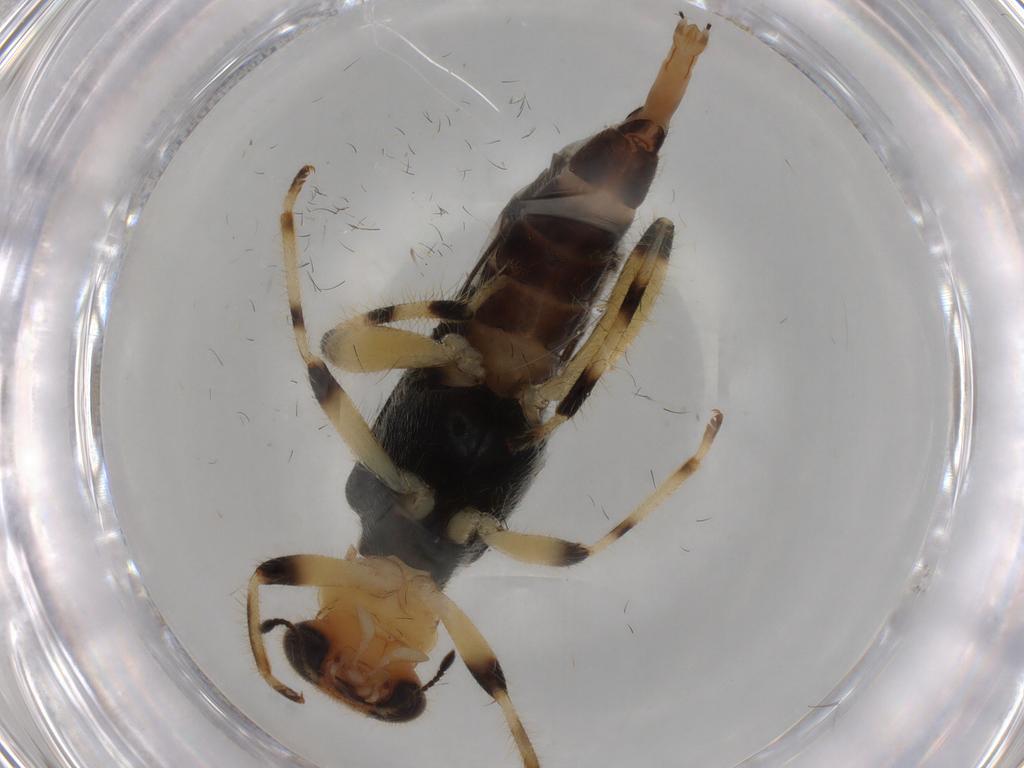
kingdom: Animalia
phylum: Arthropoda
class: Insecta
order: Coleoptera
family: Cleridae
